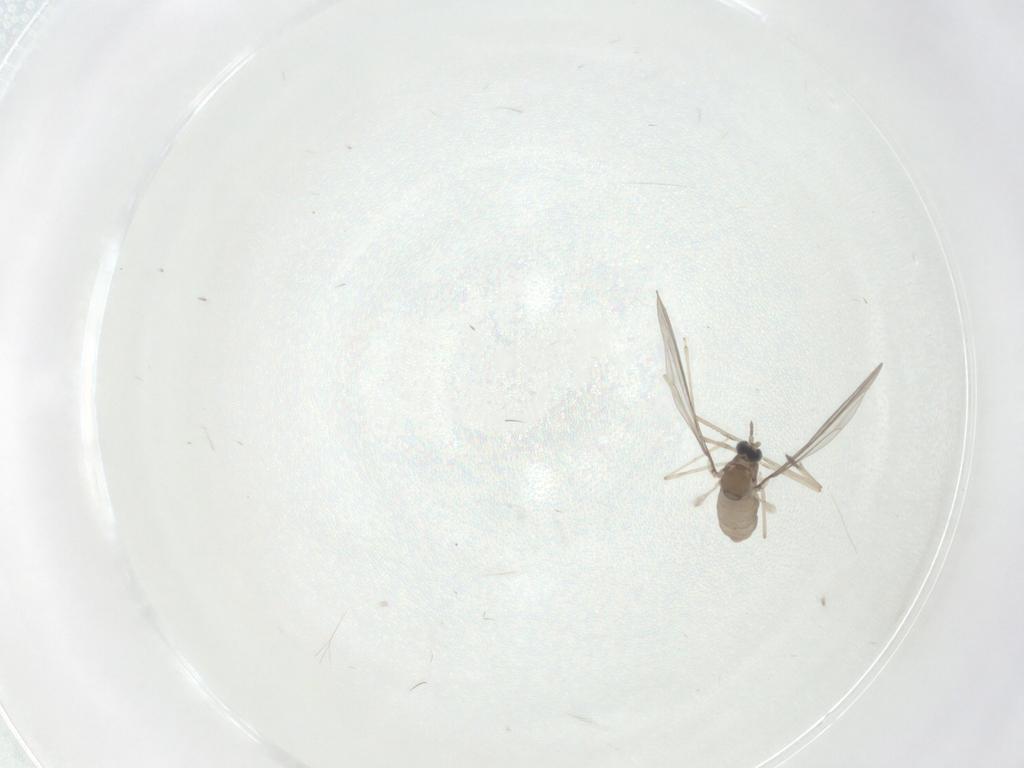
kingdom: Animalia
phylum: Arthropoda
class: Insecta
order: Diptera
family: Cecidomyiidae
